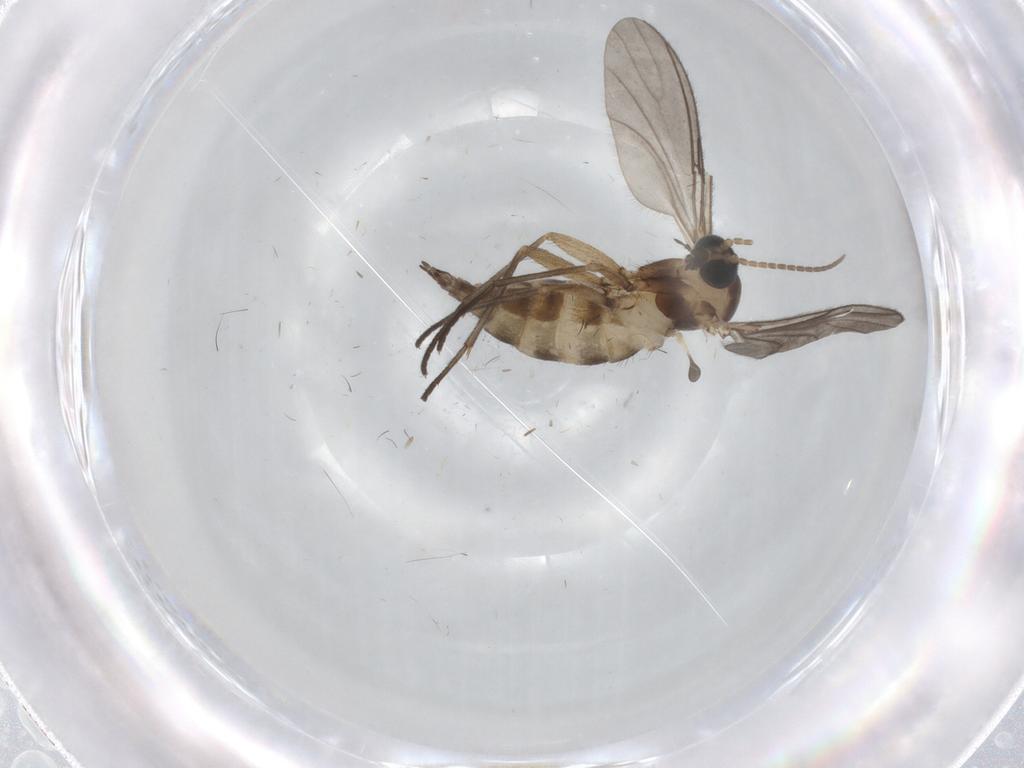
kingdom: Animalia
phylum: Arthropoda
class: Insecta
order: Diptera
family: Sciaridae
